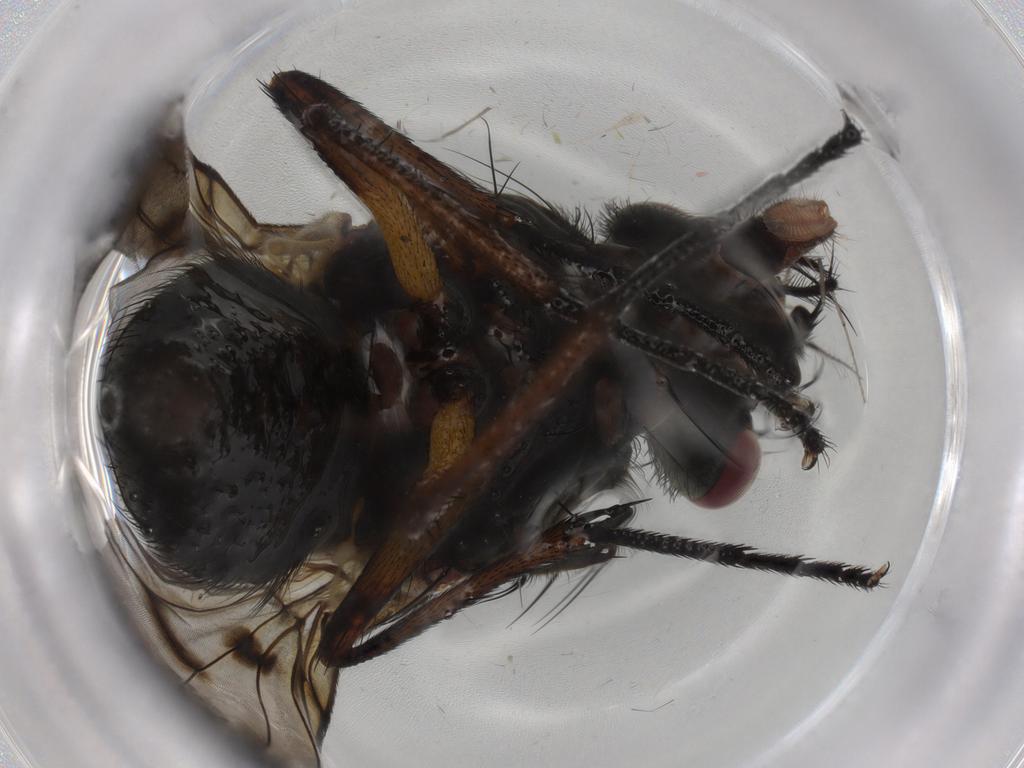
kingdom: Animalia
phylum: Arthropoda
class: Insecta
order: Diptera
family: Muscidae
